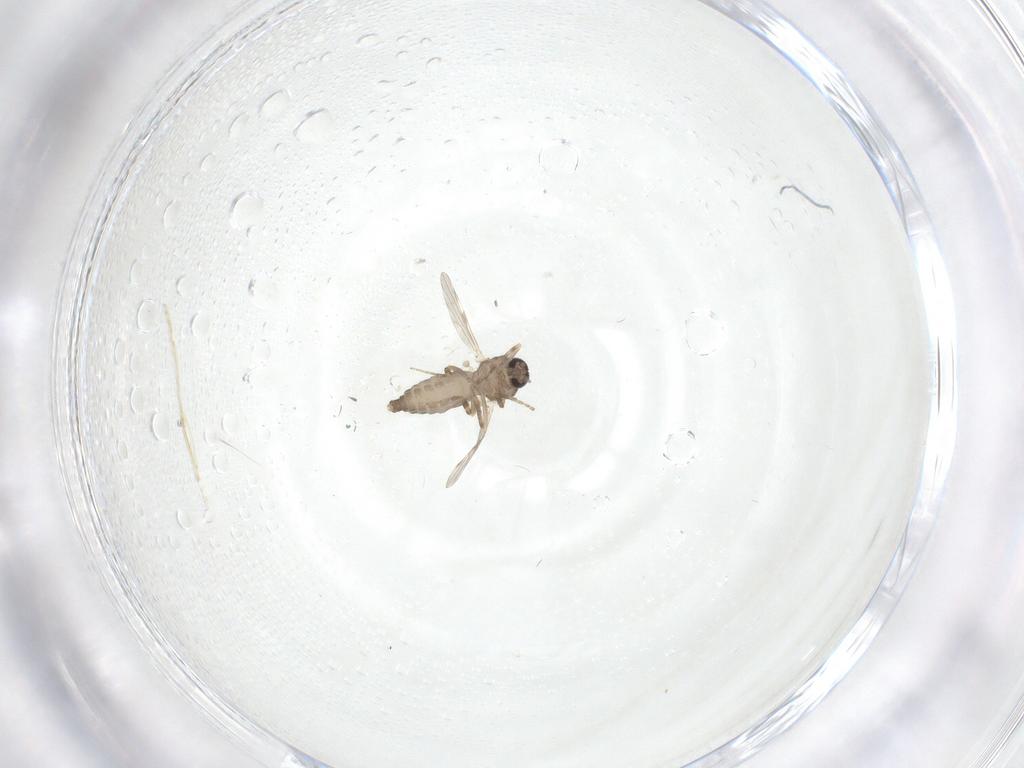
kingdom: Animalia
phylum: Arthropoda
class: Insecta
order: Diptera
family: Ceratopogonidae
